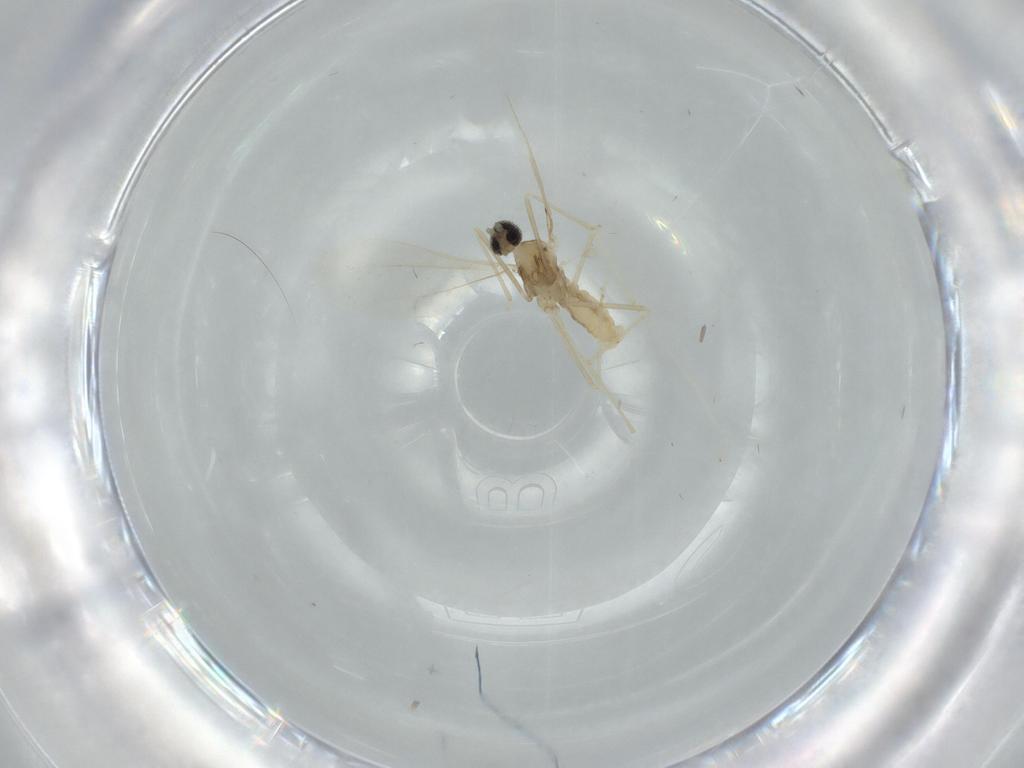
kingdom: Animalia
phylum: Arthropoda
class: Insecta
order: Diptera
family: Cecidomyiidae
